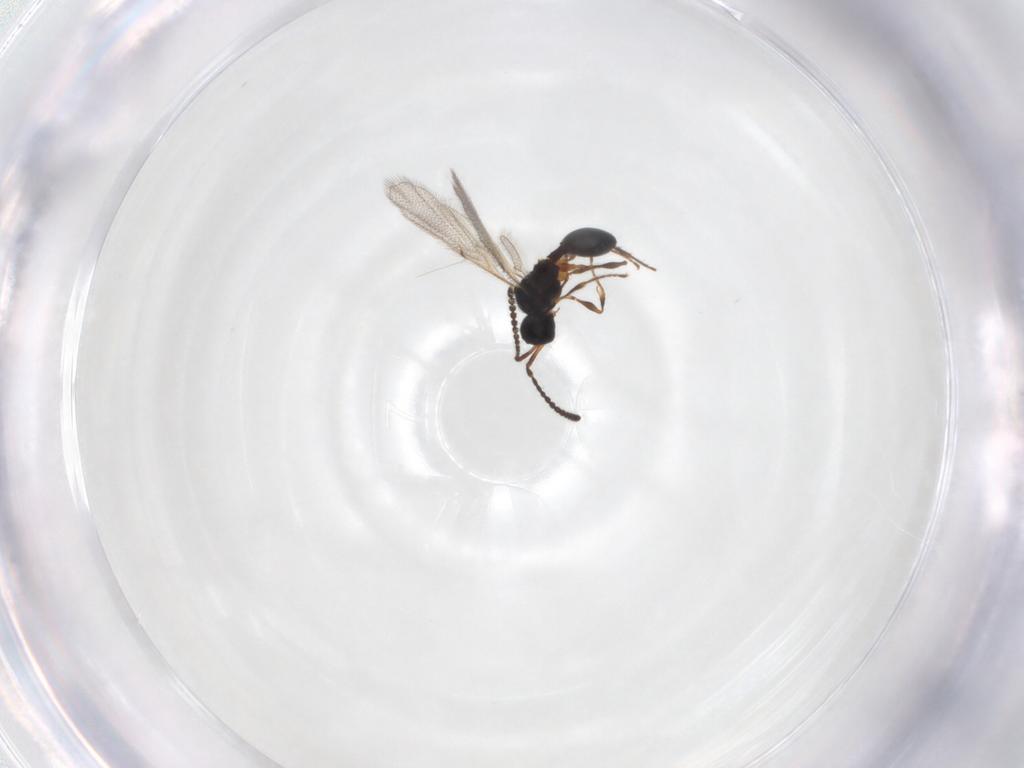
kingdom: Animalia
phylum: Arthropoda
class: Insecta
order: Hymenoptera
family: Diapriidae
